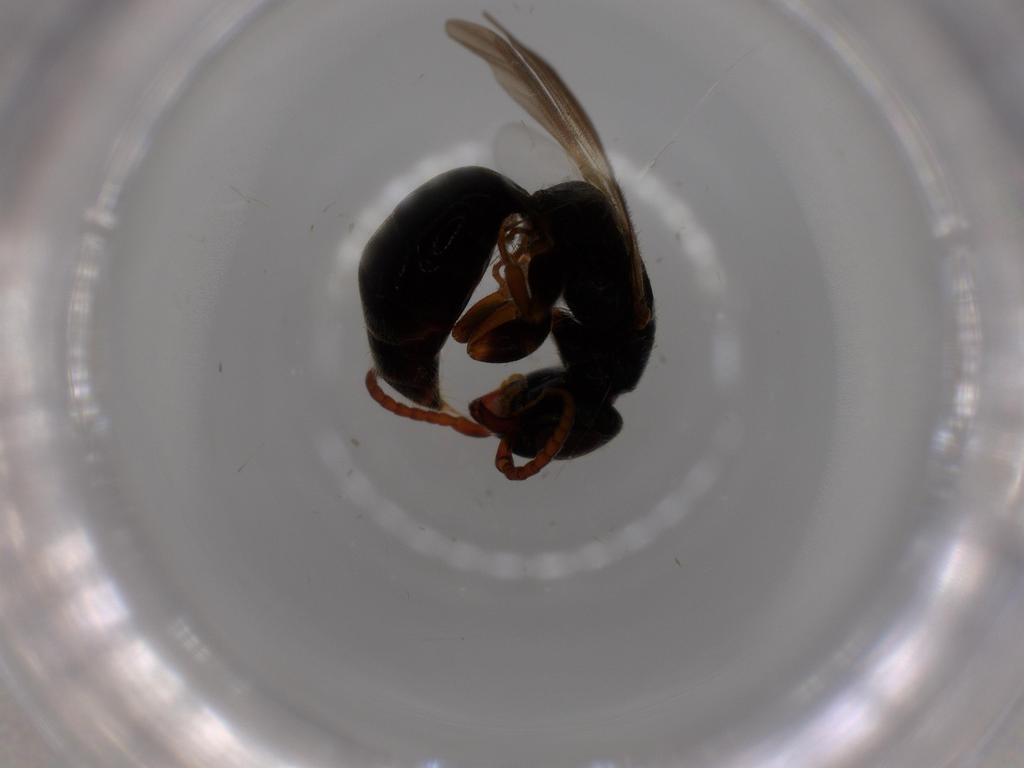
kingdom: Animalia
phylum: Arthropoda
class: Insecta
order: Hymenoptera
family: Bethylidae
